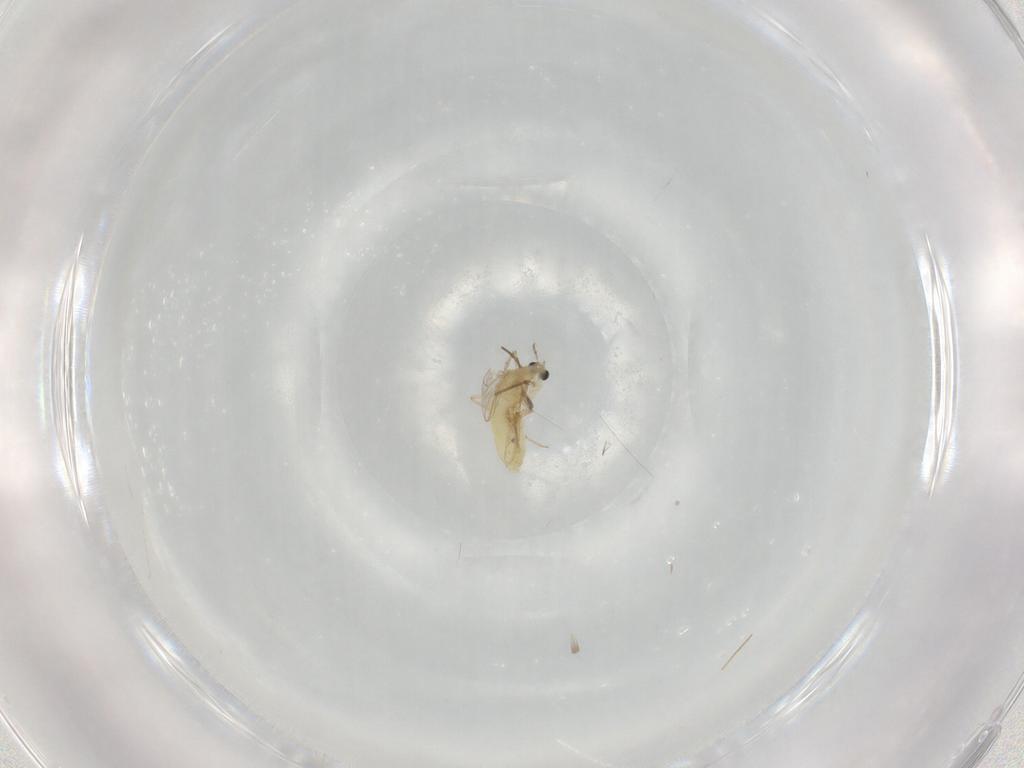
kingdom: Animalia
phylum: Arthropoda
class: Insecta
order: Diptera
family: Chironomidae
